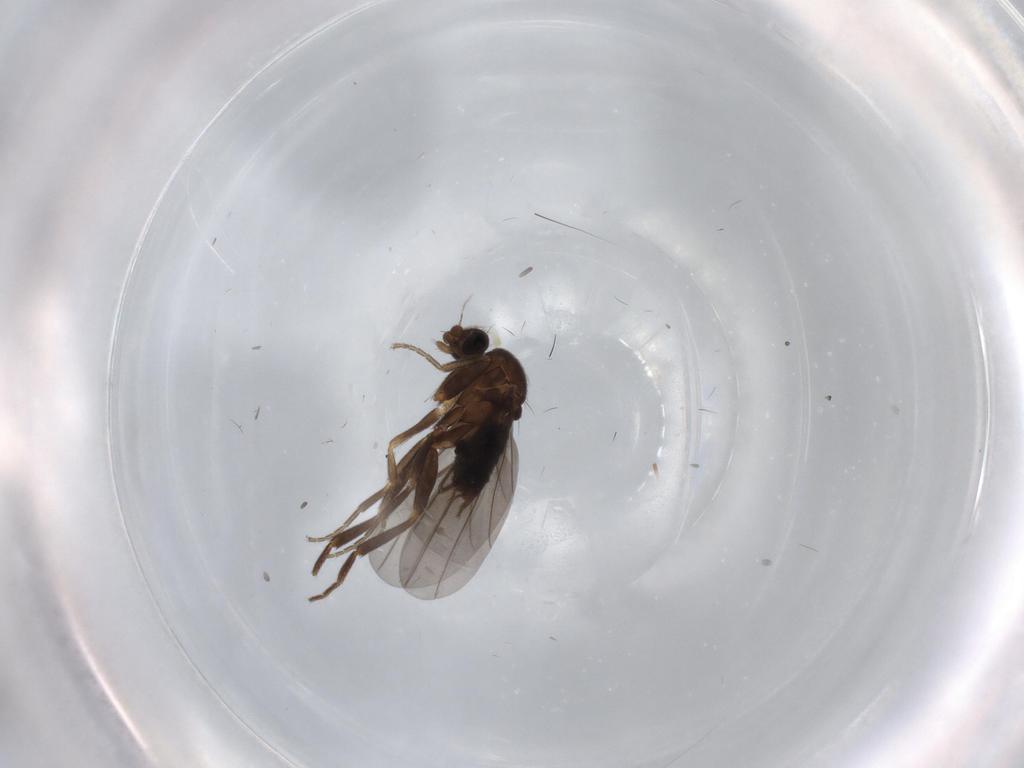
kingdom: Animalia
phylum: Arthropoda
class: Insecta
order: Diptera
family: Phoridae
